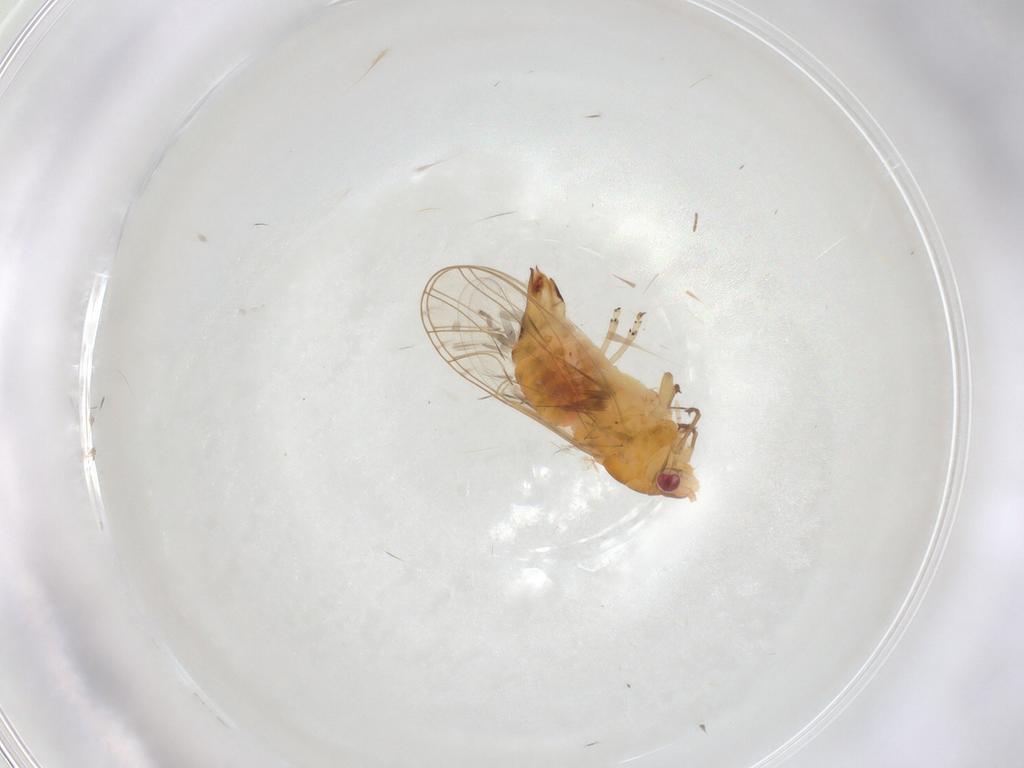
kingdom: Animalia
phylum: Arthropoda
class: Insecta
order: Hemiptera
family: Psyllidae
